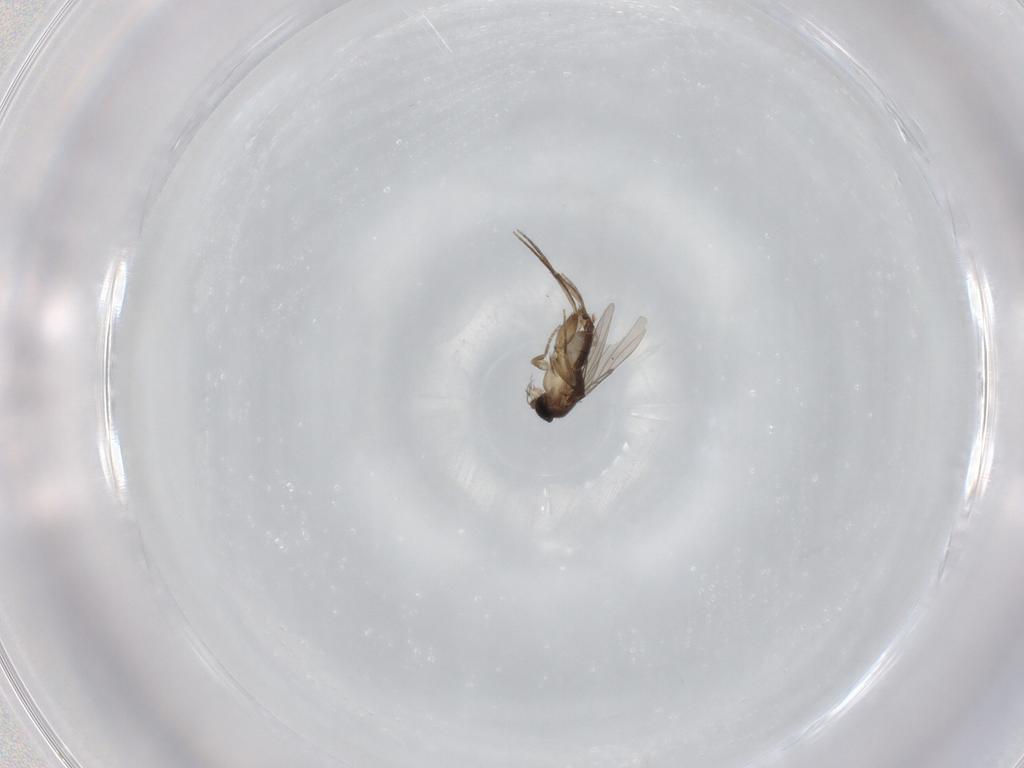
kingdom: Animalia
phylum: Arthropoda
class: Insecta
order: Diptera
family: Phoridae
